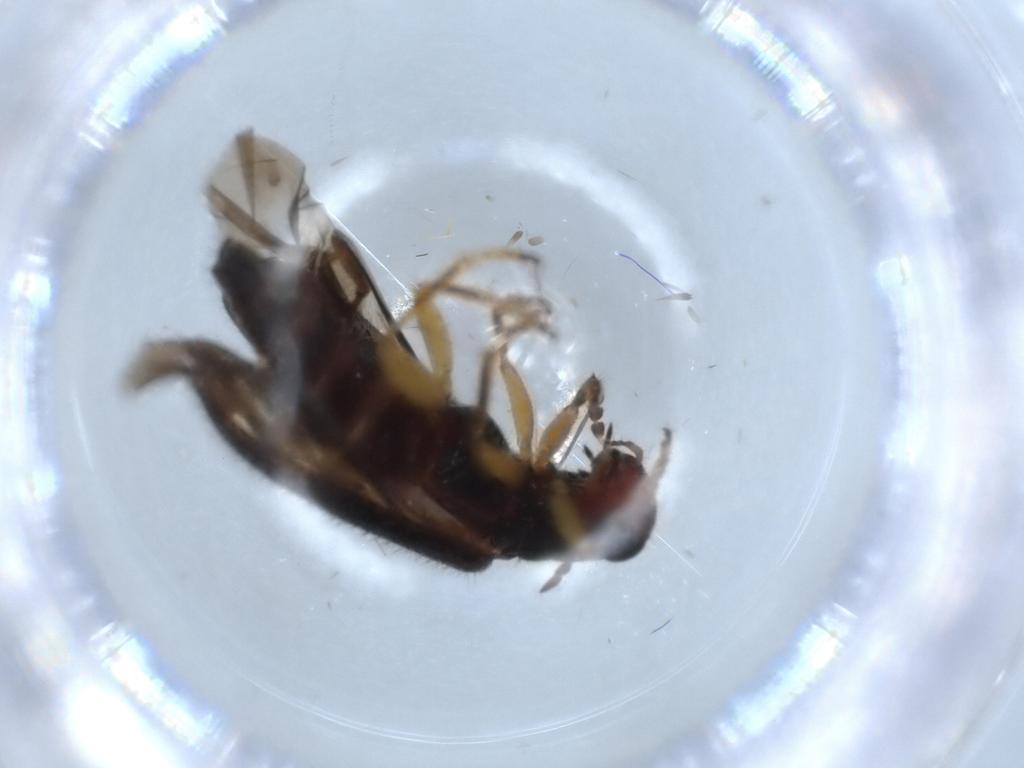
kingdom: Animalia
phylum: Arthropoda
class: Insecta
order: Coleoptera
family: Cleridae
